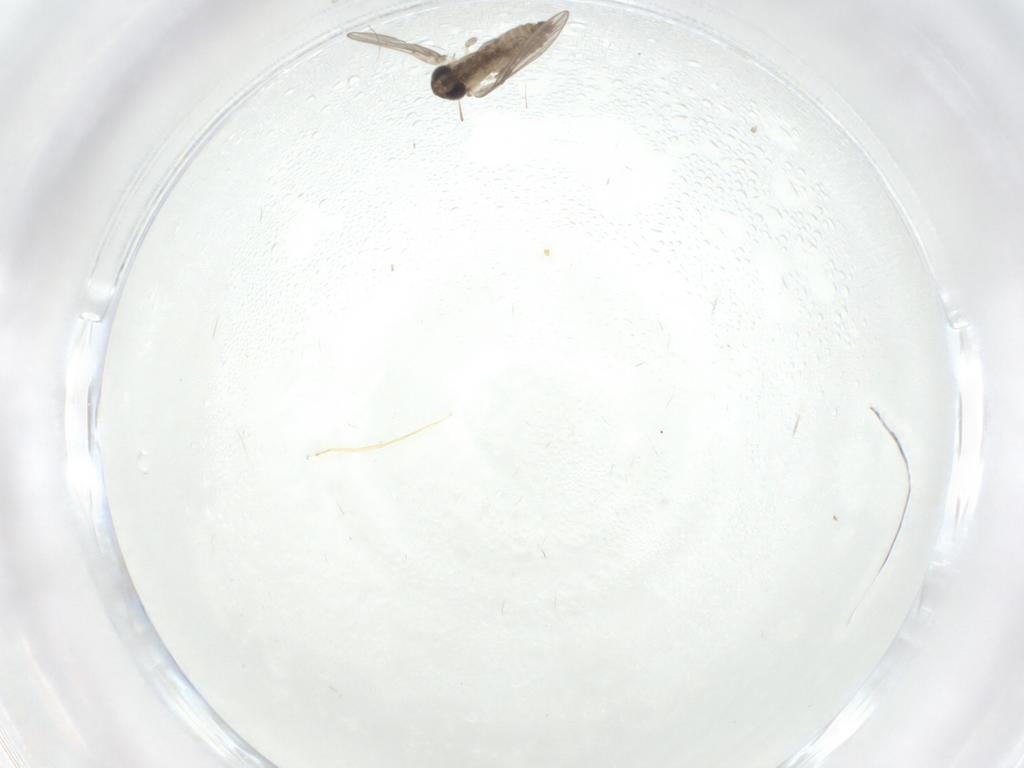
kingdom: Animalia
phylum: Arthropoda
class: Insecta
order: Diptera
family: Psychodidae
